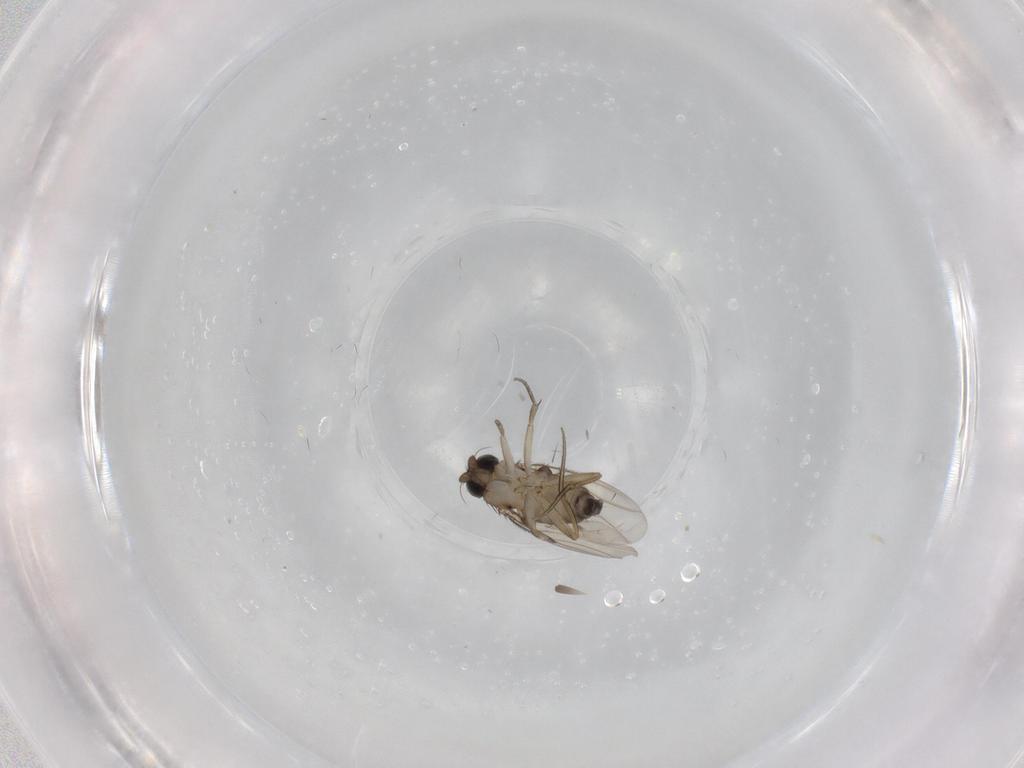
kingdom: Animalia
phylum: Arthropoda
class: Insecta
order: Diptera
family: Phoridae
